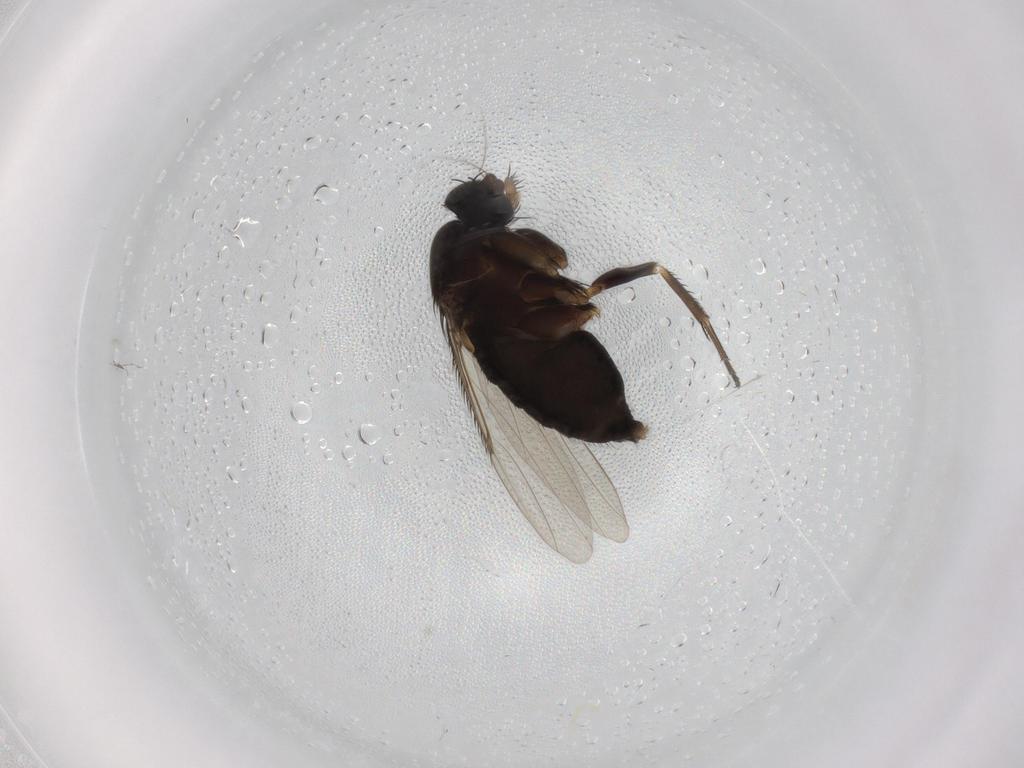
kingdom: Animalia
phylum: Arthropoda
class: Insecta
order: Diptera
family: Phoridae
